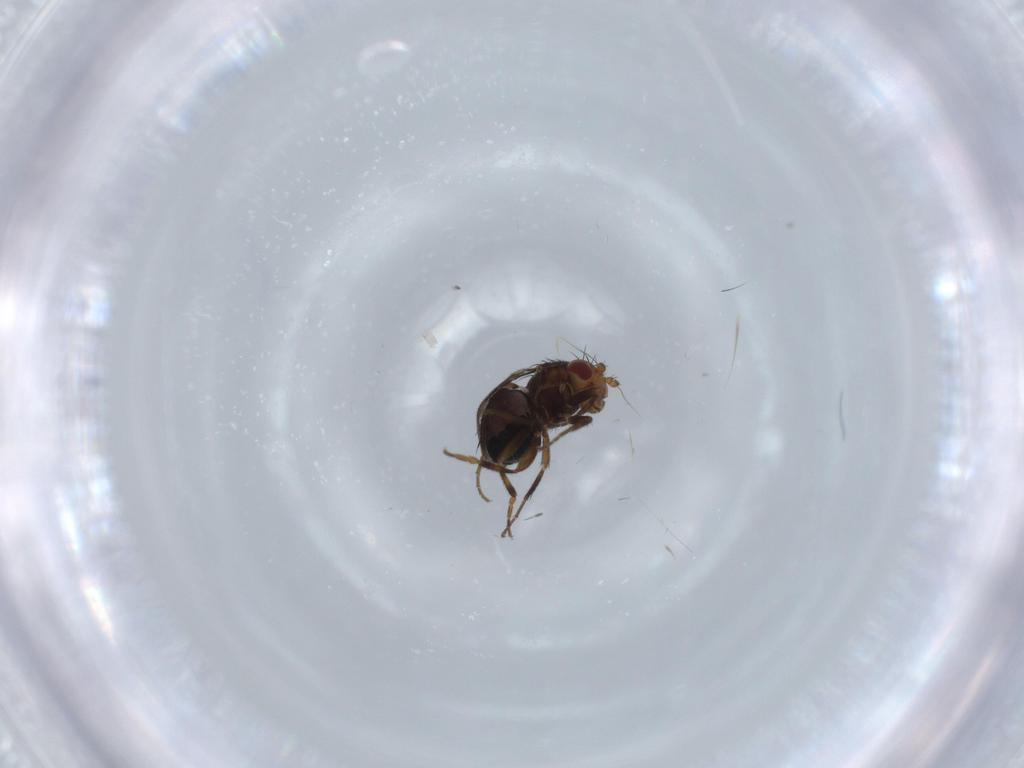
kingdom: Animalia
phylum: Arthropoda
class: Insecta
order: Diptera
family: Sphaeroceridae
